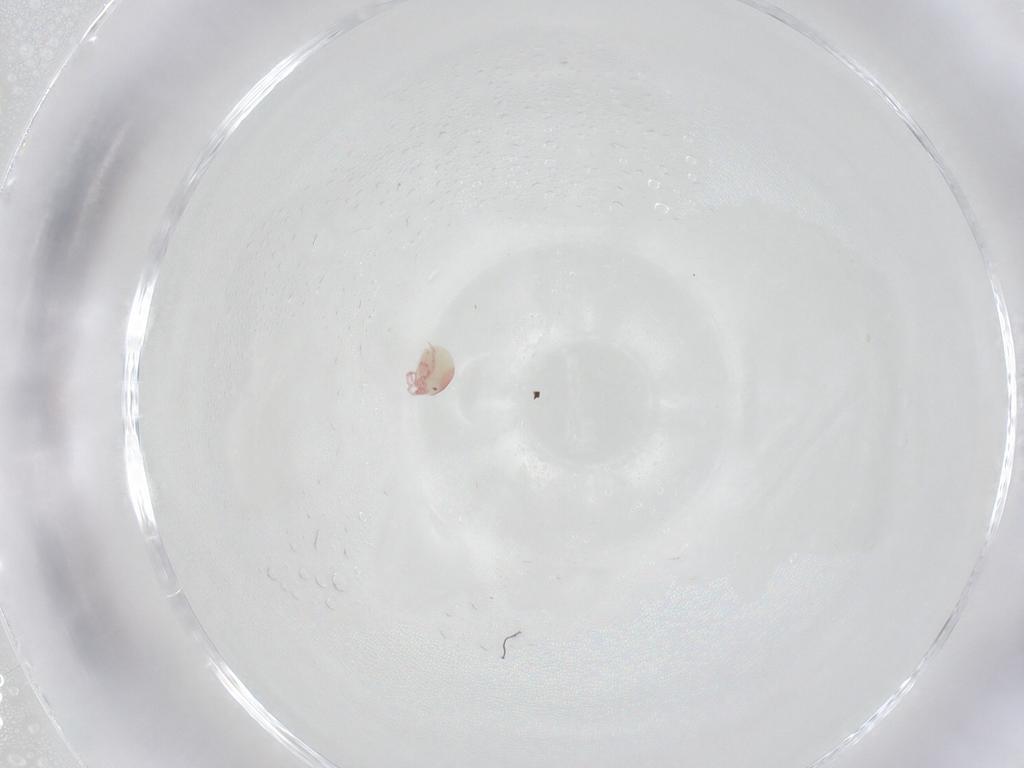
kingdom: Animalia
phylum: Arthropoda
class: Arachnida
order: Trombidiformes
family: Pionidae
